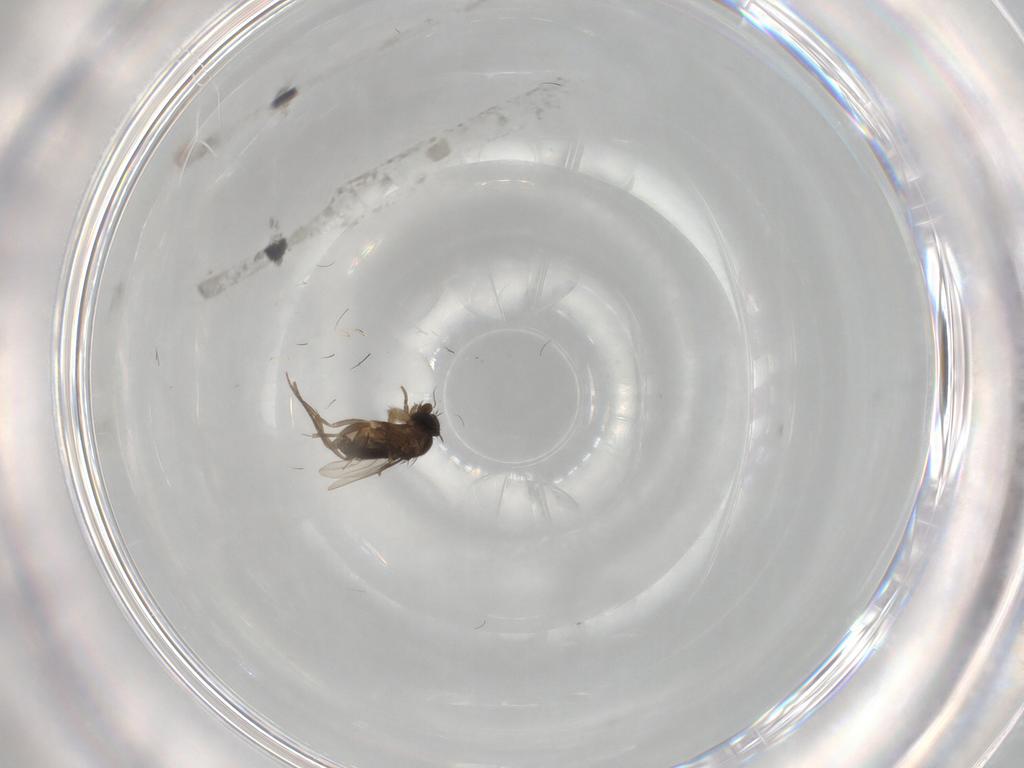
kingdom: Animalia
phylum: Arthropoda
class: Insecta
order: Diptera
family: Phoridae
